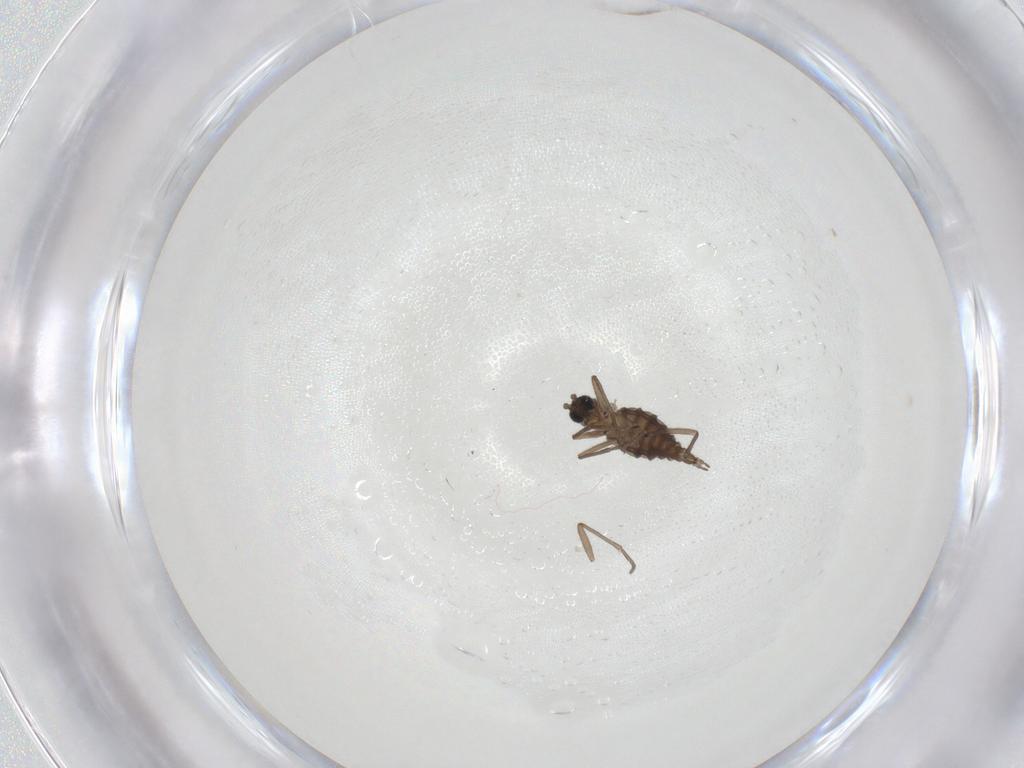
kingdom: Animalia
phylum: Arthropoda
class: Insecta
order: Diptera
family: Sciaridae
